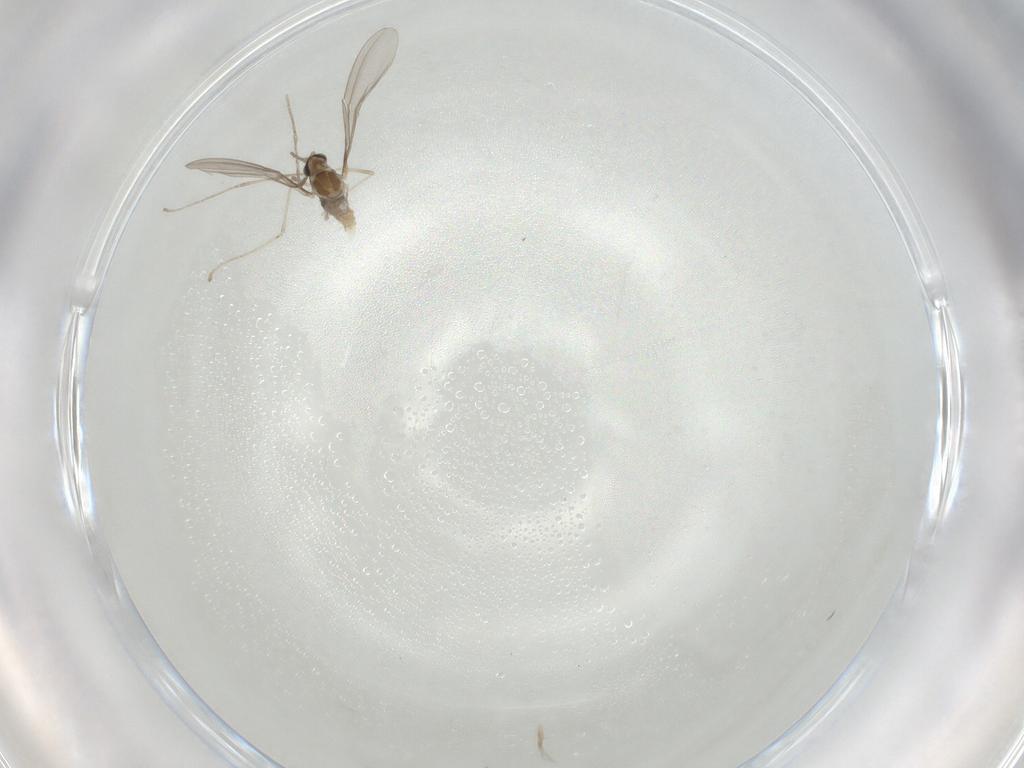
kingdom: Animalia
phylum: Arthropoda
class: Insecta
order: Diptera
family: Cecidomyiidae
